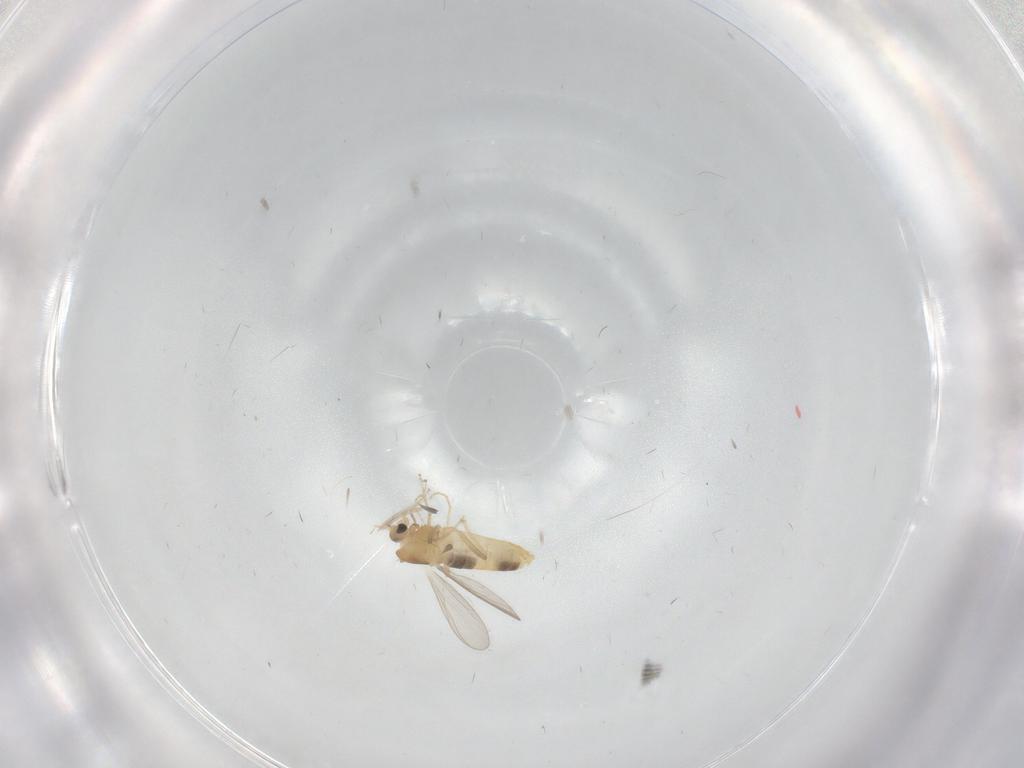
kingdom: Animalia
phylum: Arthropoda
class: Insecta
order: Diptera
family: Chironomidae
